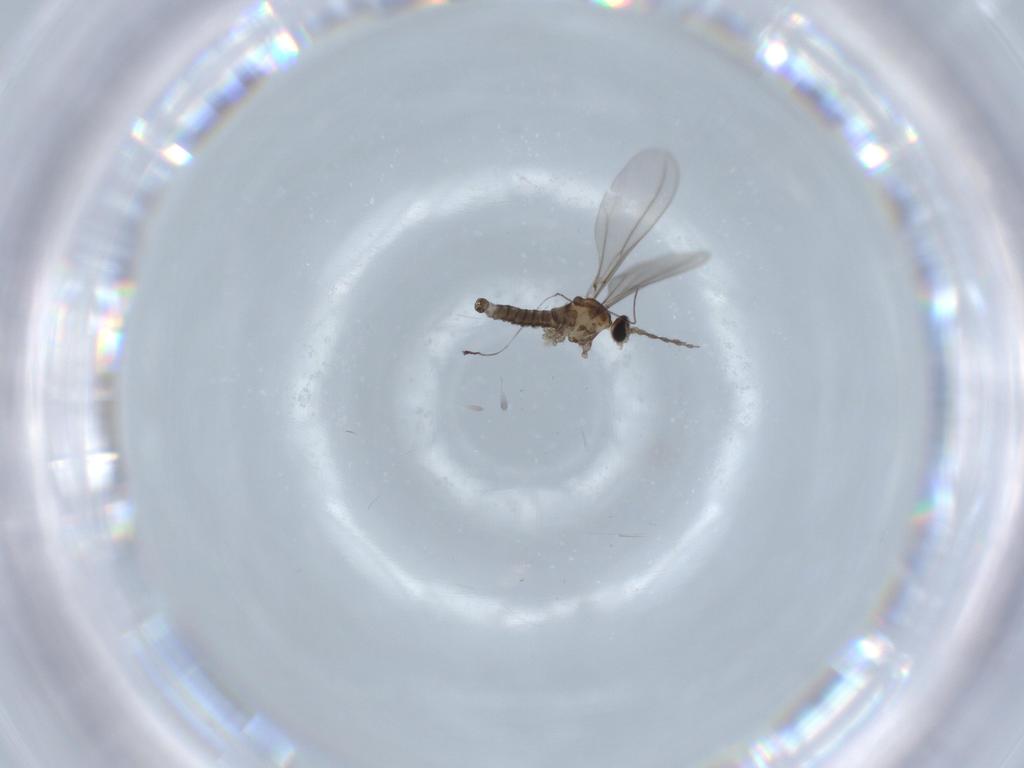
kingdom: Animalia
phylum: Arthropoda
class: Insecta
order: Diptera
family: Cecidomyiidae
